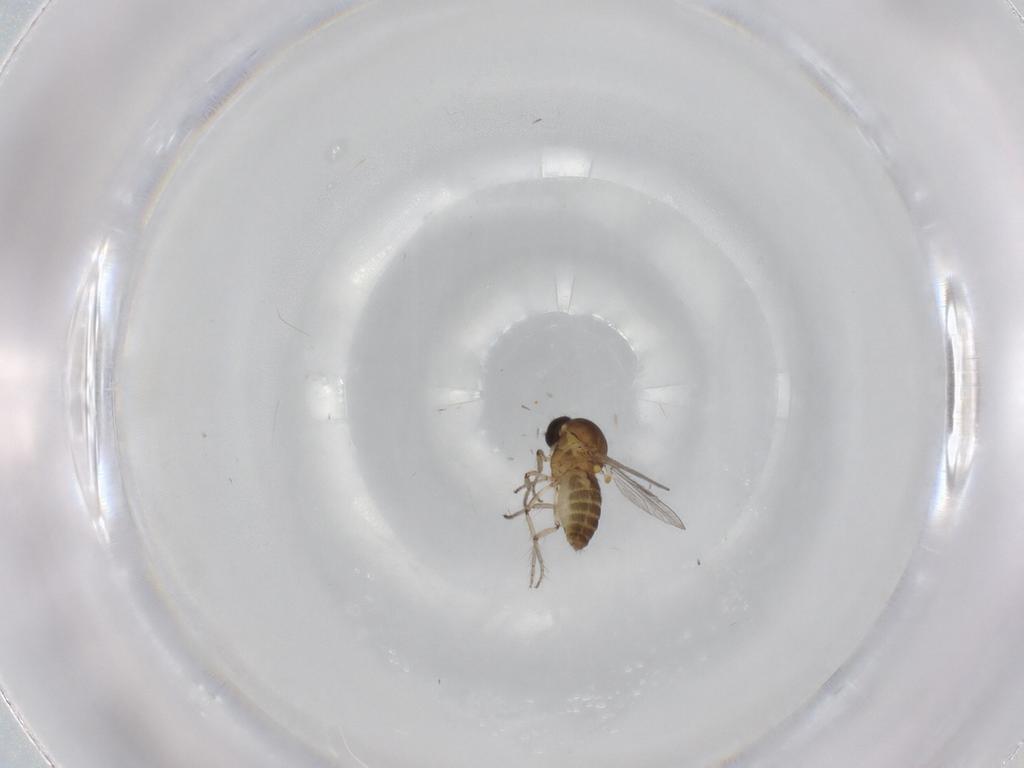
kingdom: Animalia
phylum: Arthropoda
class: Insecta
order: Diptera
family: Ceratopogonidae
